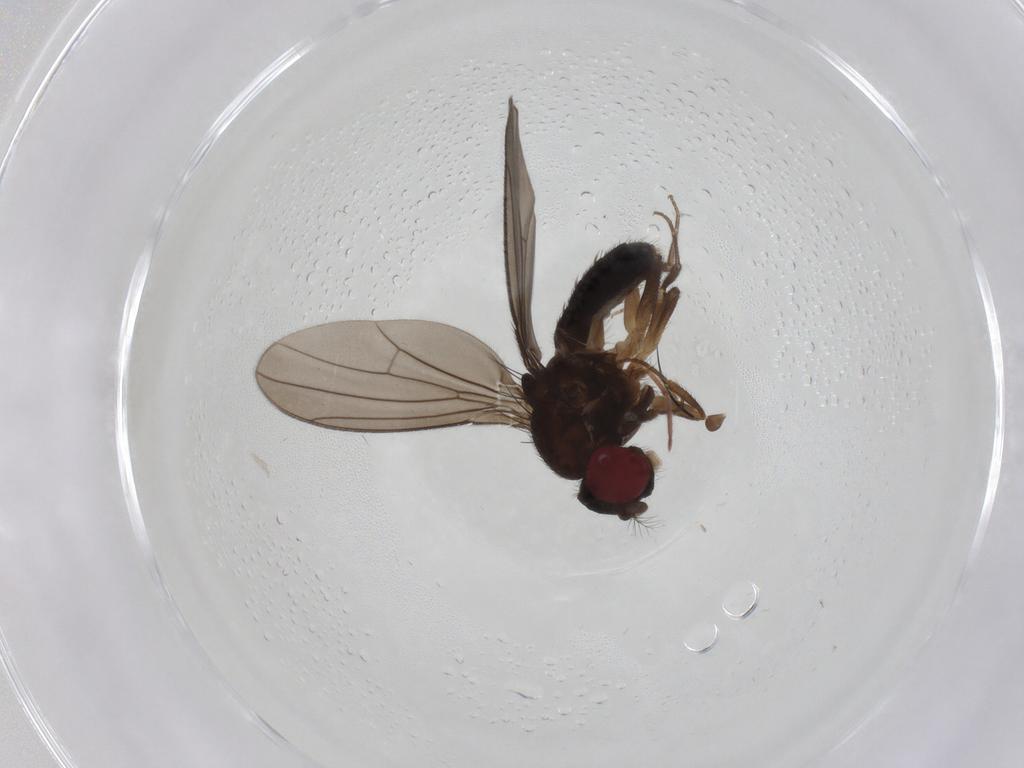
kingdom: Animalia
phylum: Arthropoda
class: Insecta
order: Diptera
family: Drosophilidae
